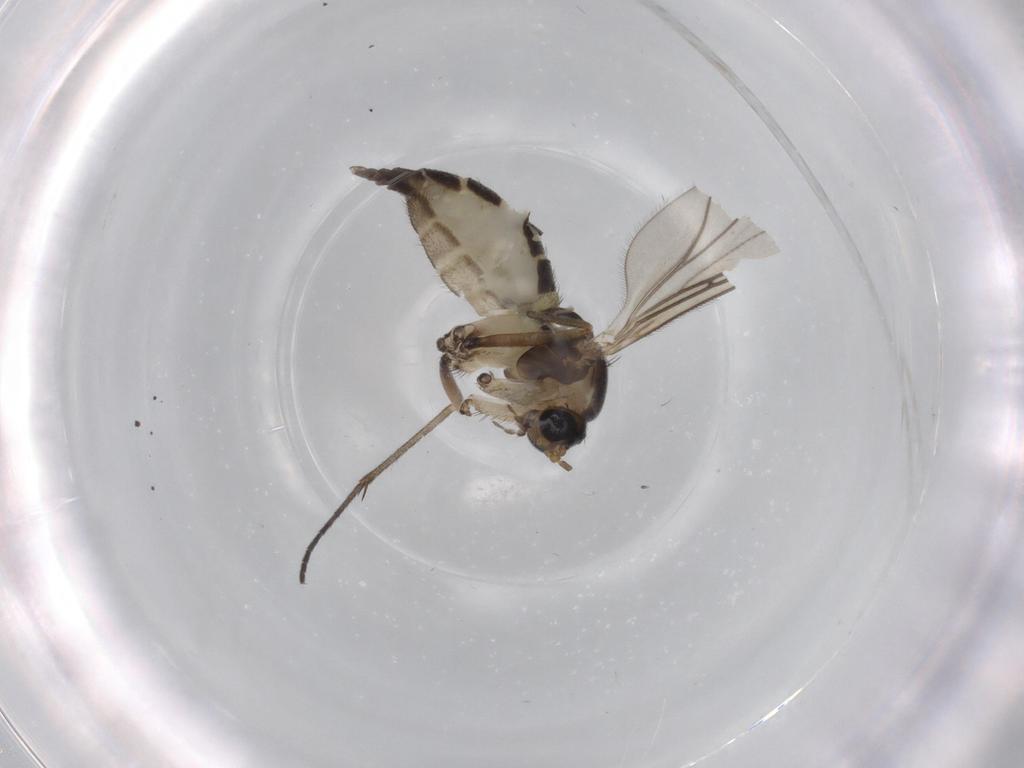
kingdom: Animalia
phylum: Arthropoda
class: Insecta
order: Diptera
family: Sciaridae
